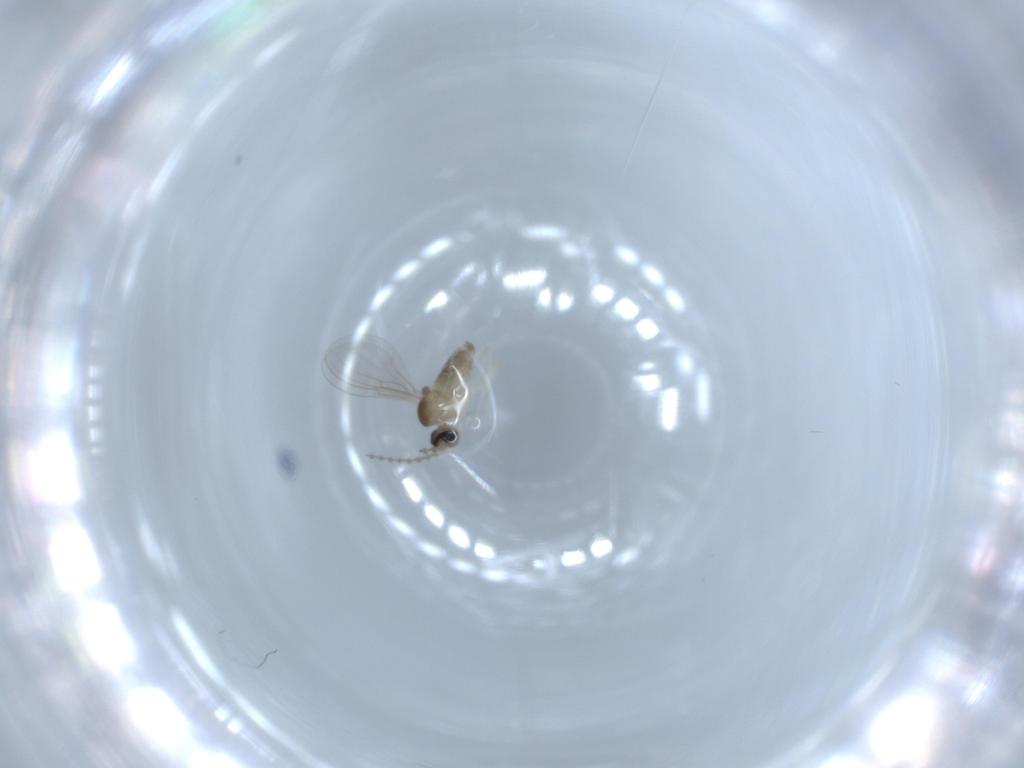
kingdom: Animalia
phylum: Arthropoda
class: Insecta
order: Diptera
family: Cecidomyiidae
